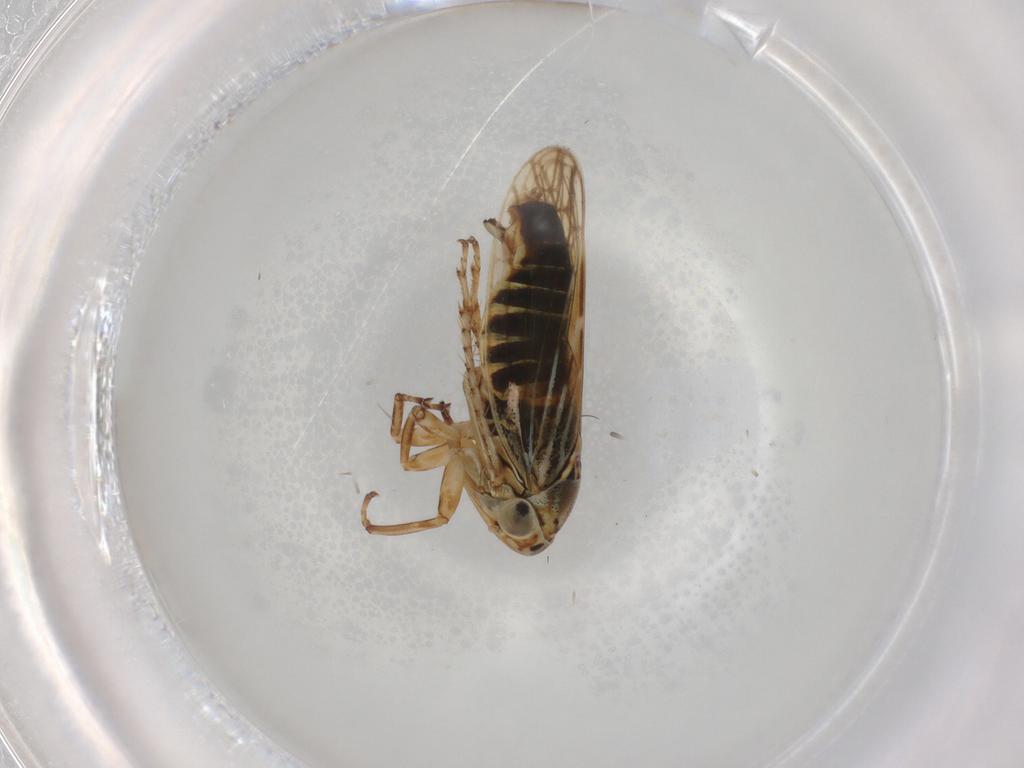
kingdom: Animalia
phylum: Arthropoda
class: Insecta
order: Hemiptera
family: Cicadellidae
